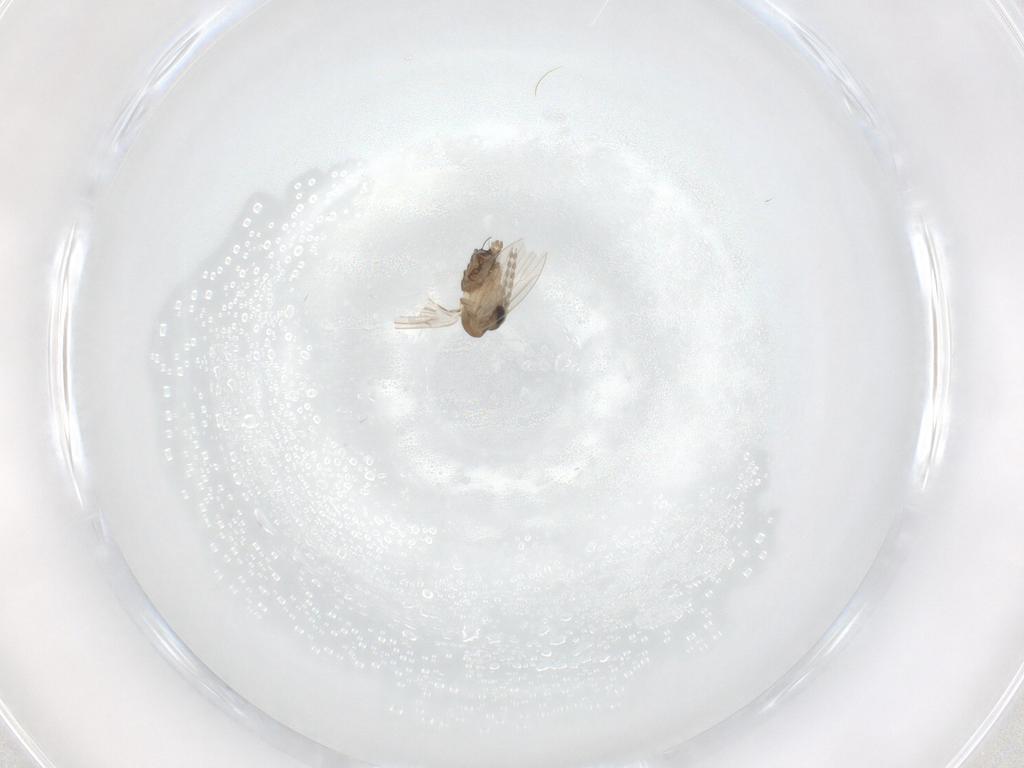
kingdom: Animalia
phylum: Arthropoda
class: Insecta
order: Diptera
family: Psychodidae
